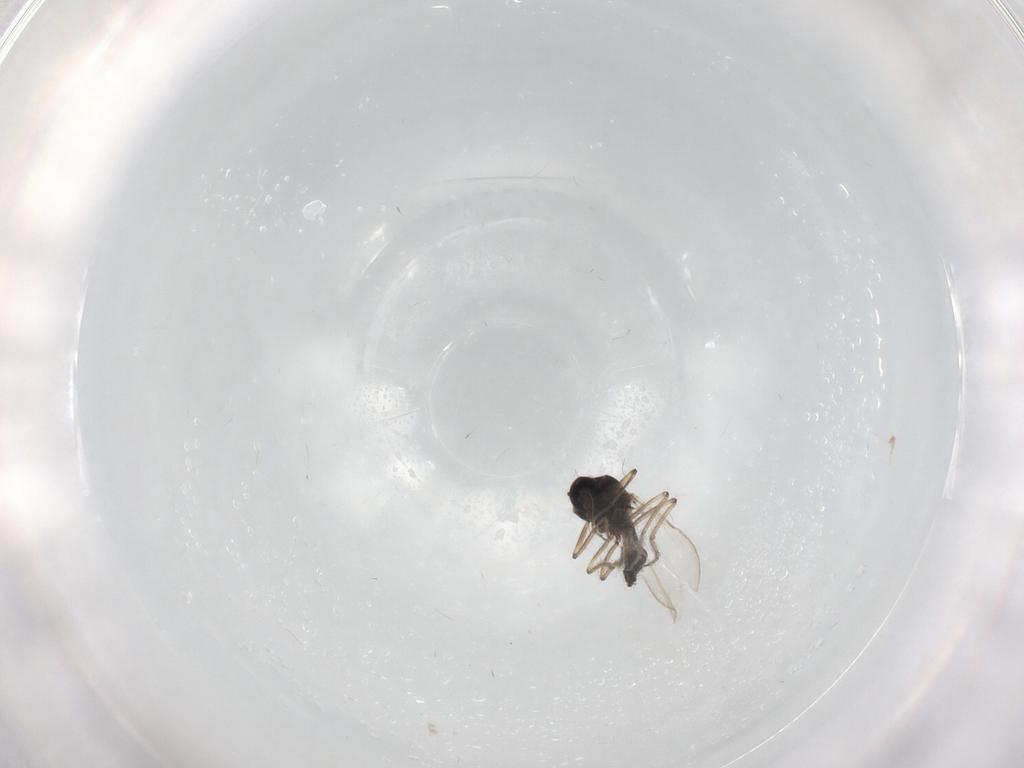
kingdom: Animalia
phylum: Arthropoda
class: Insecta
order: Diptera
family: Ceratopogonidae
